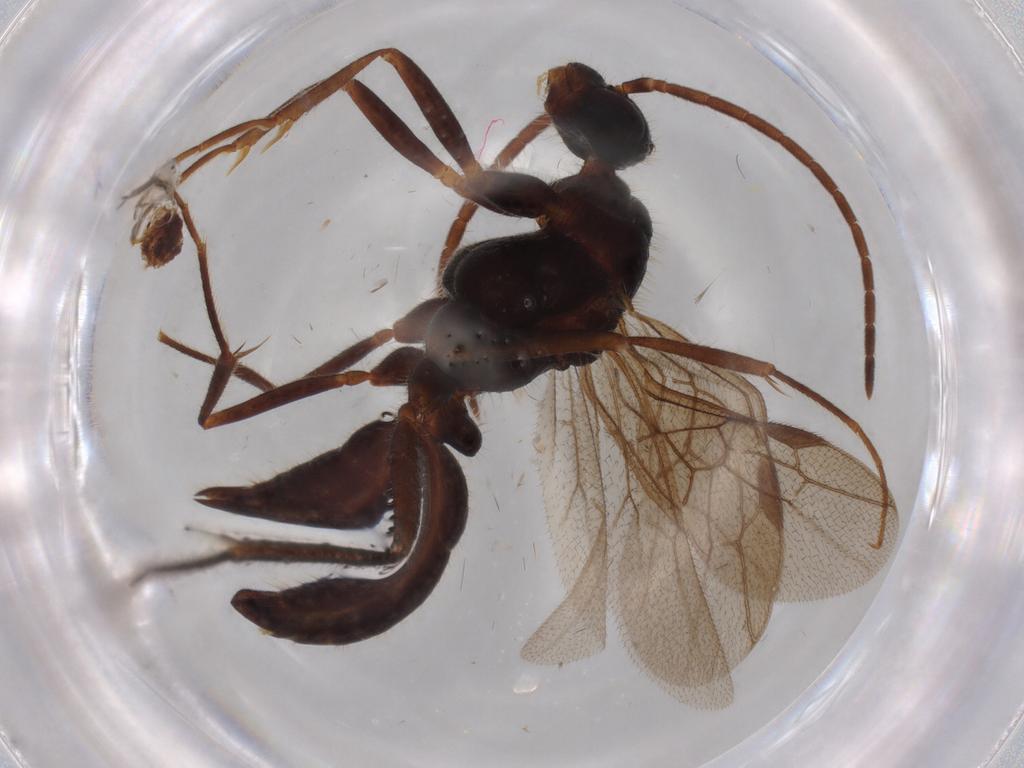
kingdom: Animalia
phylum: Arthropoda
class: Insecta
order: Hymenoptera
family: Formicidae
